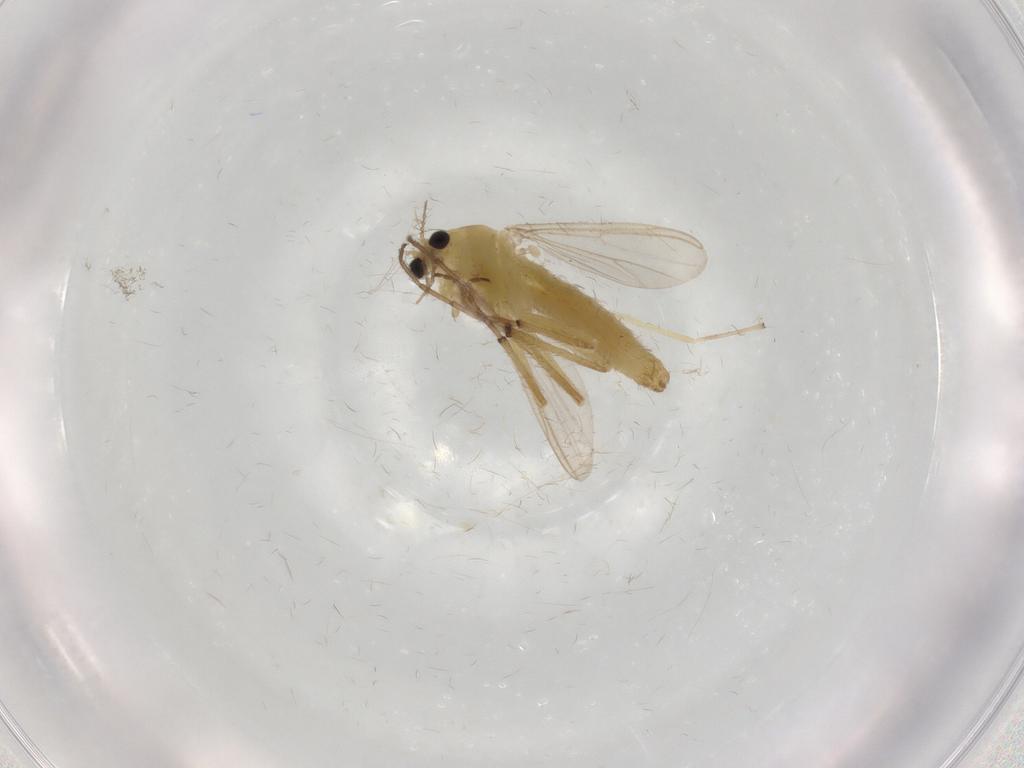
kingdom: Animalia
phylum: Arthropoda
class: Insecta
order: Diptera
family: Chironomidae
